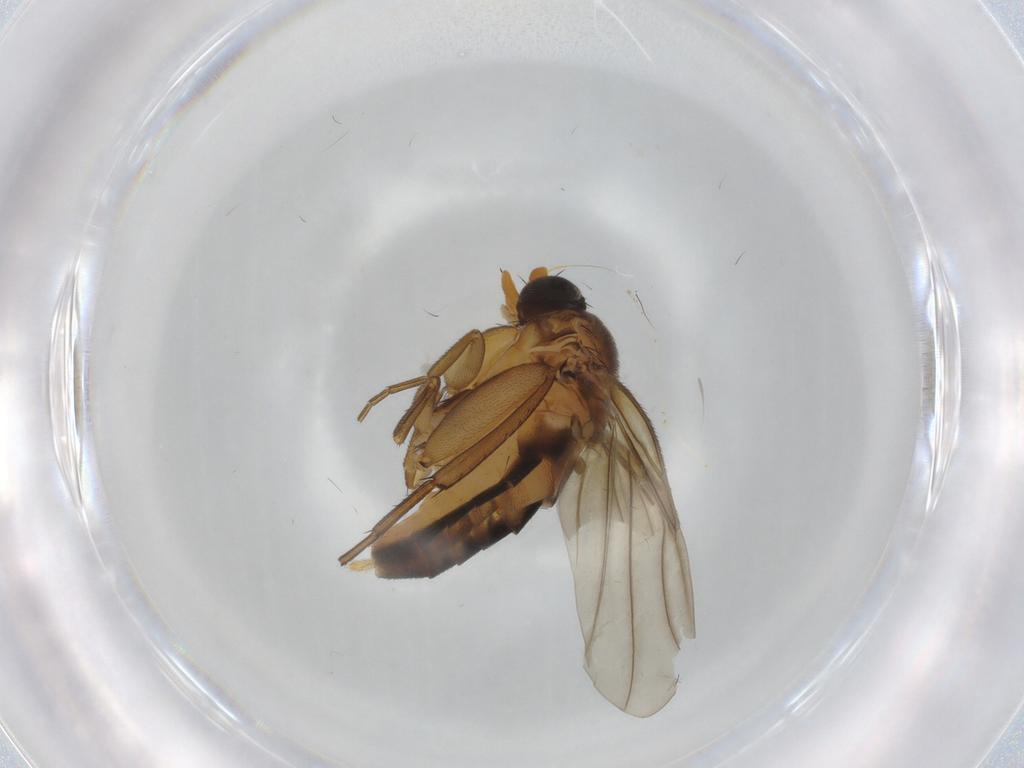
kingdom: Animalia
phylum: Arthropoda
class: Insecta
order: Diptera
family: Phoridae
